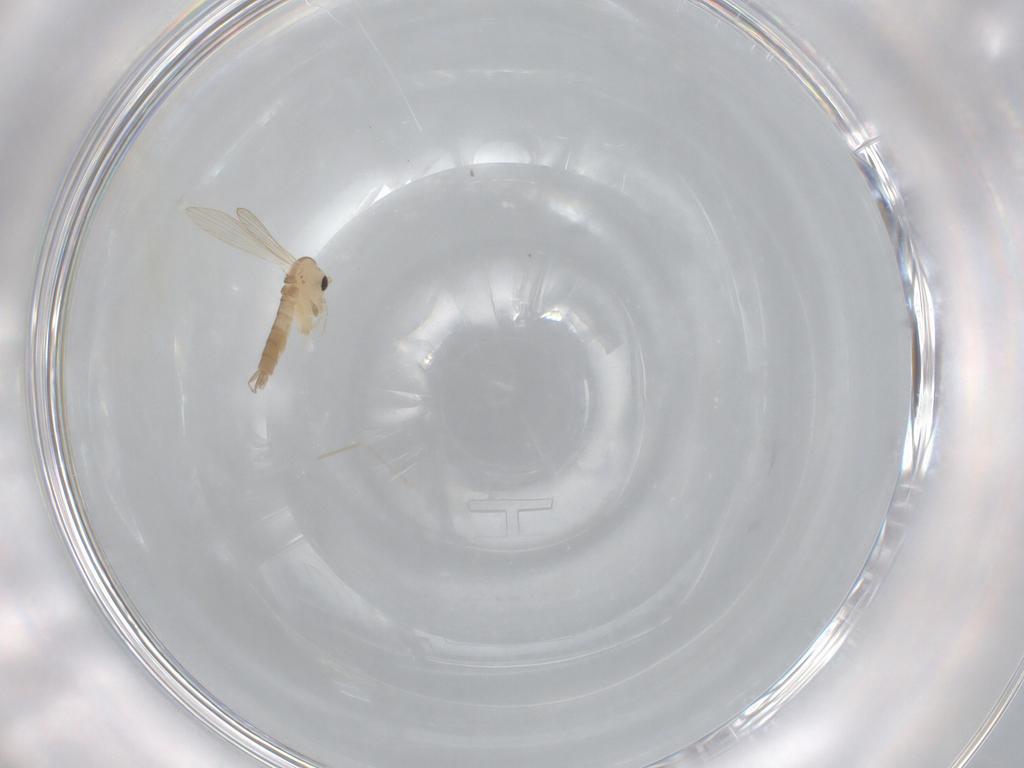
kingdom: Animalia
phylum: Arthropoda
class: Insecta
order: Diptera
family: Psychodidae
